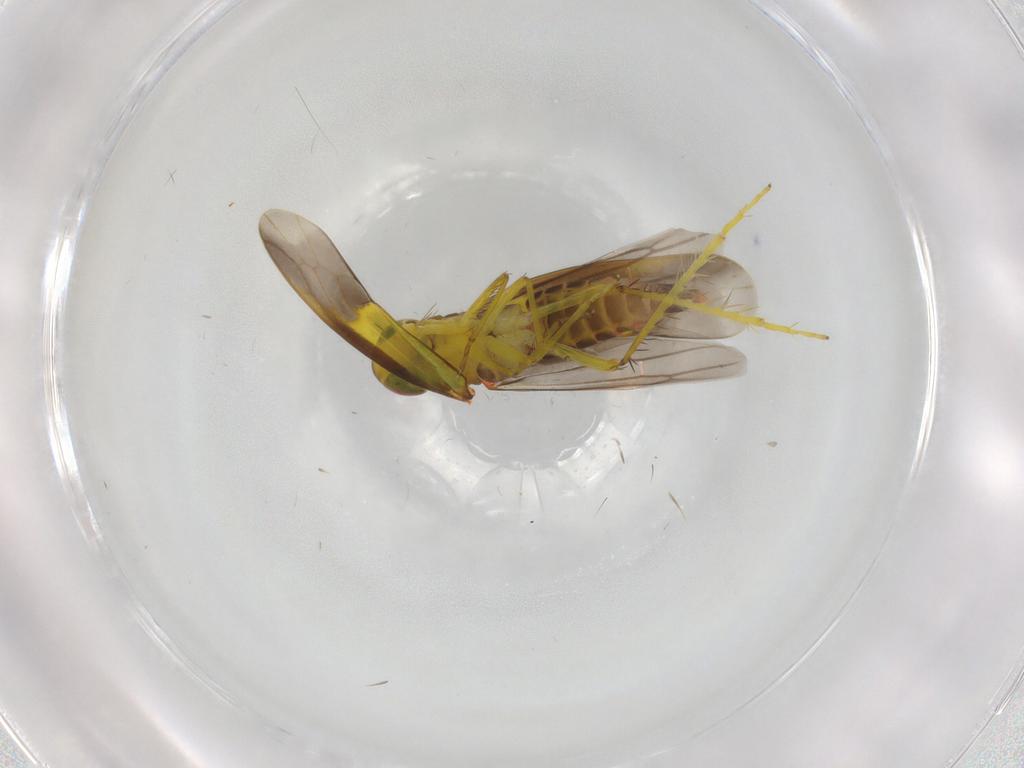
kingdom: Animalia
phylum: Arthropoda
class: Insecta
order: Hemiptera
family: Cicadellidae
